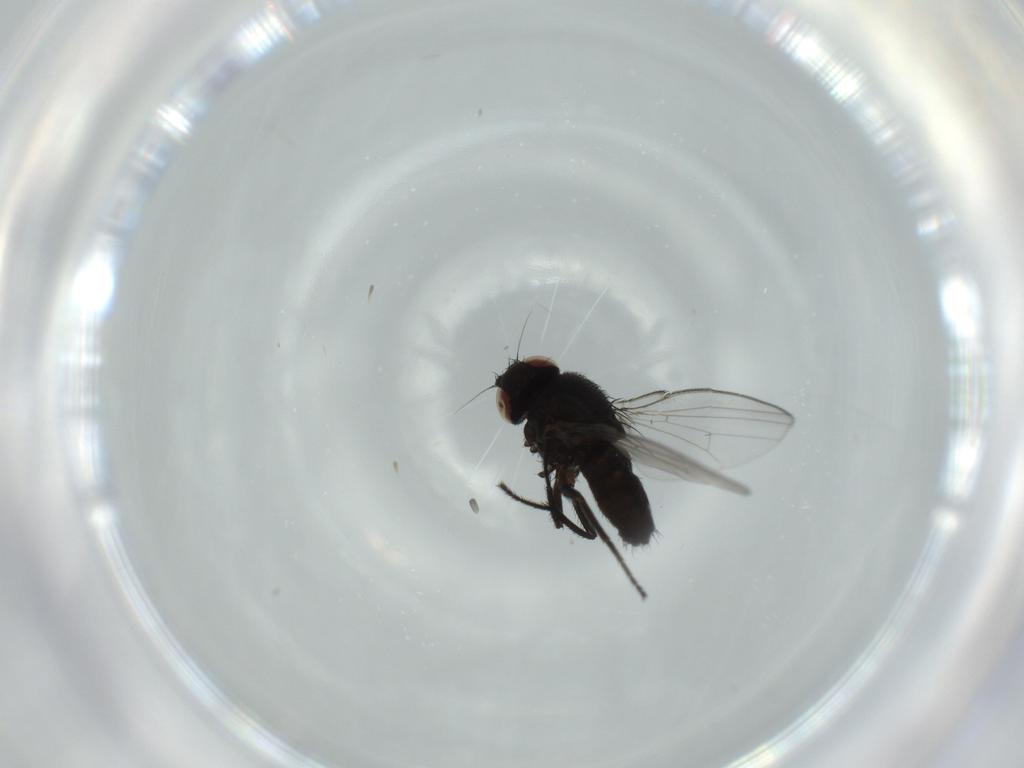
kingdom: Animalia
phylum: Arthropoda
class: Insecta
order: Diptera
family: Milichiidae
